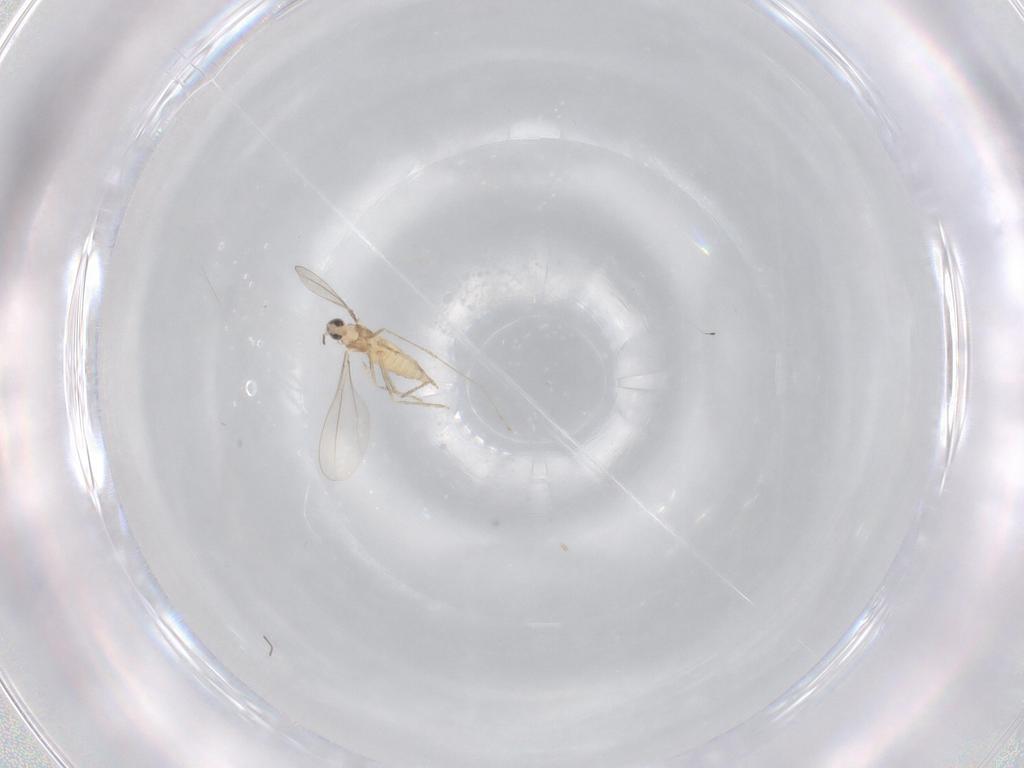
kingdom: Animalia
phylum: Arthropoda
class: Insecta
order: Diptera
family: Cecidomyiidae
